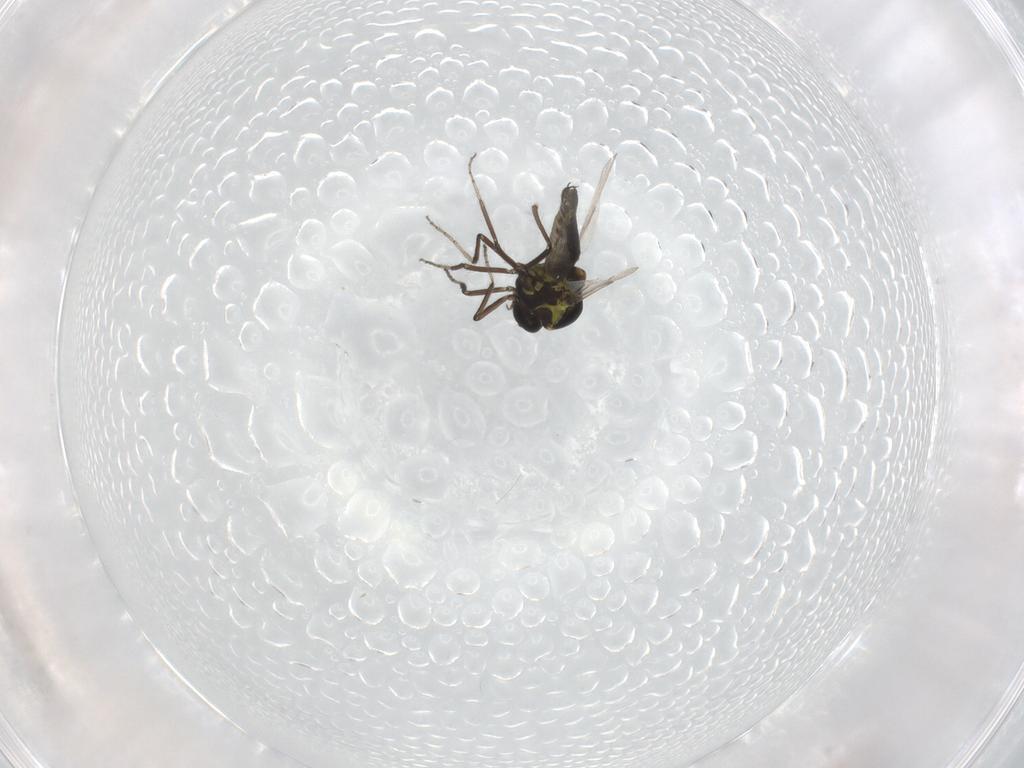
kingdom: Animalia
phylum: Arthropoda
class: Insecta
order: Diptera
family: Ceratopogonidae
